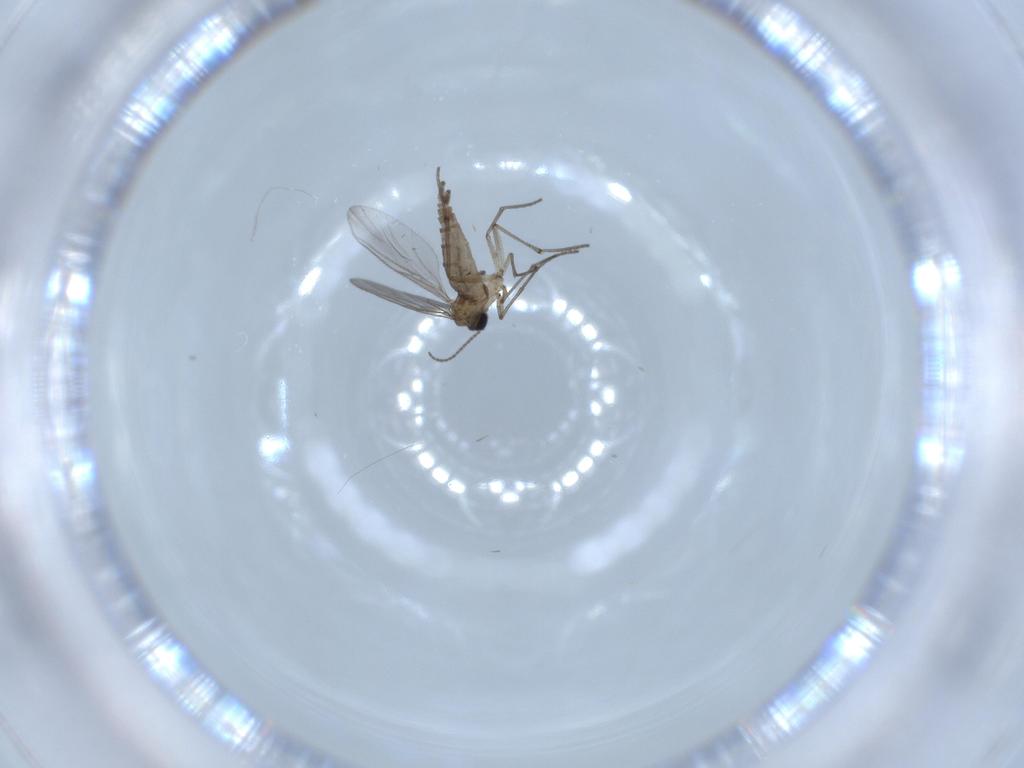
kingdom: Animalia
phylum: Arthropoda
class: Insecta
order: Diptera
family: Sciaridae
